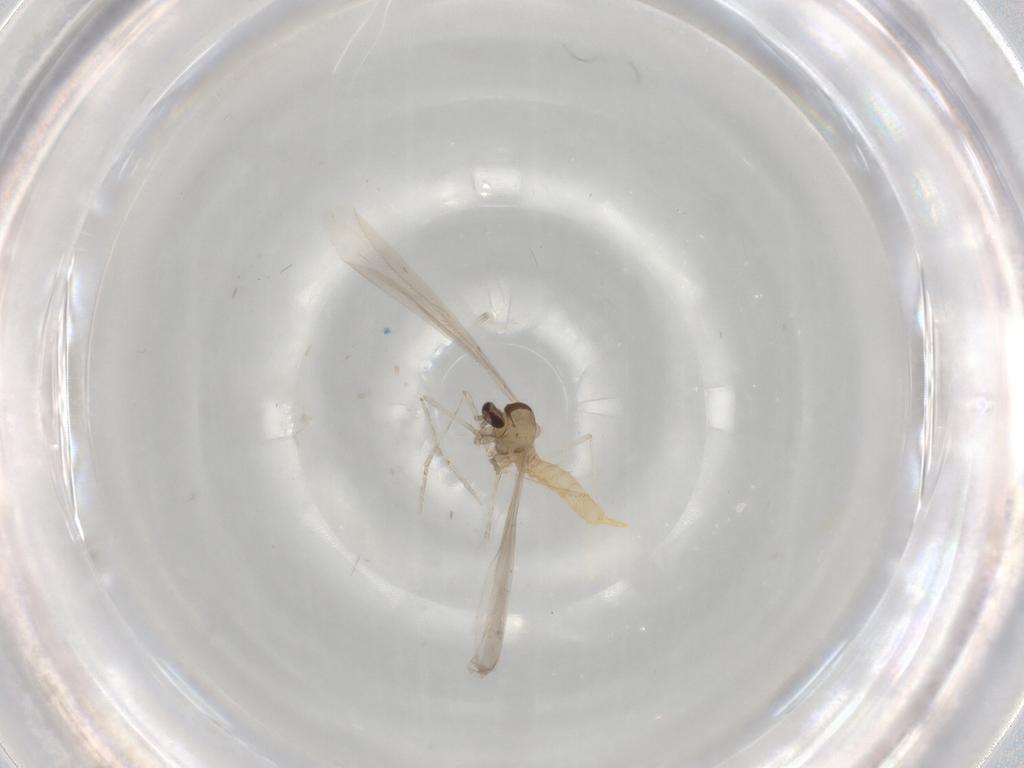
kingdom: Animalia
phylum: Arthropoda
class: Insecta
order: Diptera
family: Cecidomyiidae
